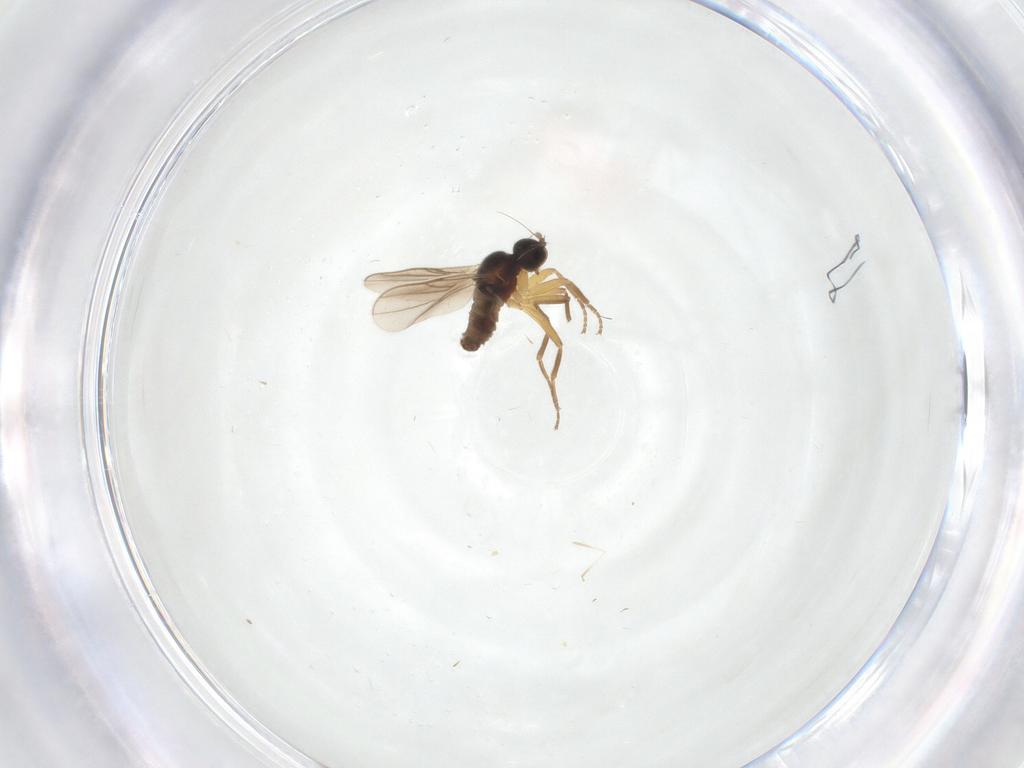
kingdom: Animalia
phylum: Arthropoda
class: Insecta
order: Diptera
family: Hybotidae
